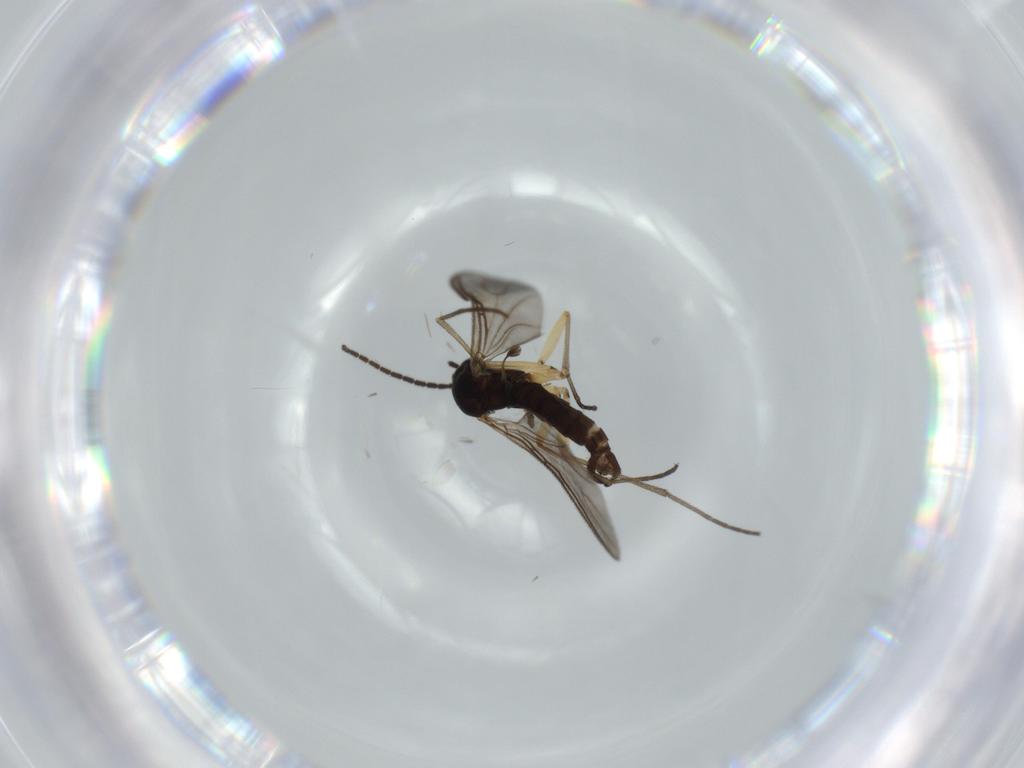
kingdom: Animalia
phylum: Arthropoda
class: Insecta
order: Diptera
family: Sciaridae
